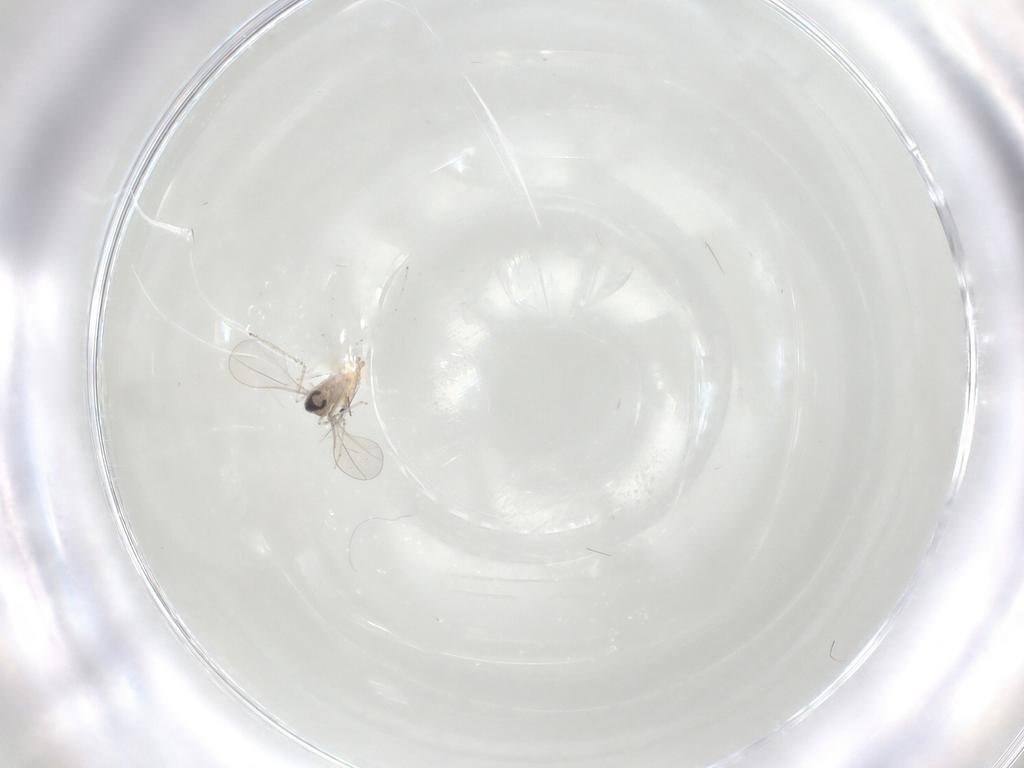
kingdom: Animalia
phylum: Arthropoda
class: Insecta
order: Diptera
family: Cecidomyiidae
